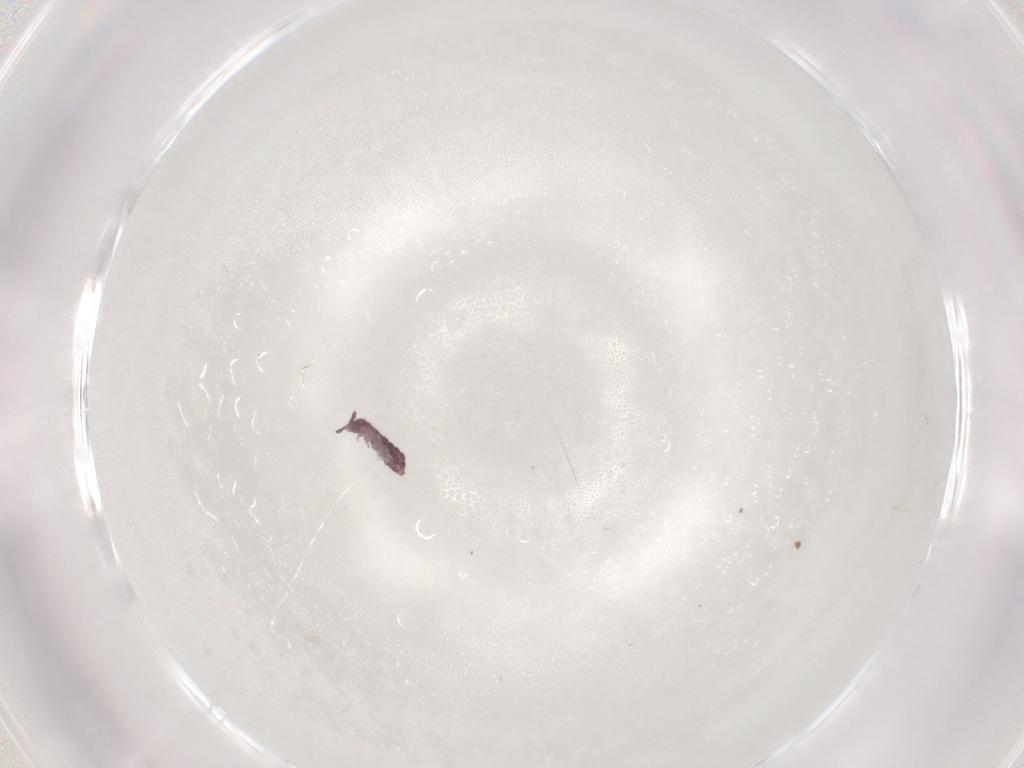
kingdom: Animalia
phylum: Arthropoda
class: Collembola
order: Poduromorpha
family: Hypogastruridae
